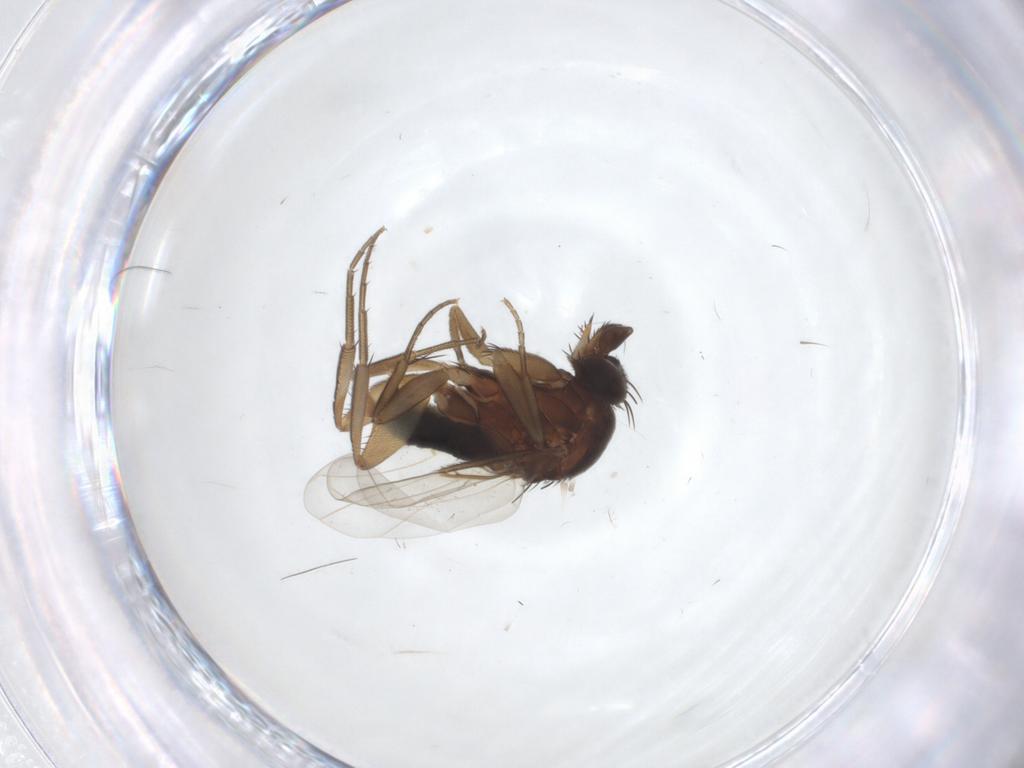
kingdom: Animalia
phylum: Arthropoda
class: Insecta
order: Diptera
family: Phoridae
